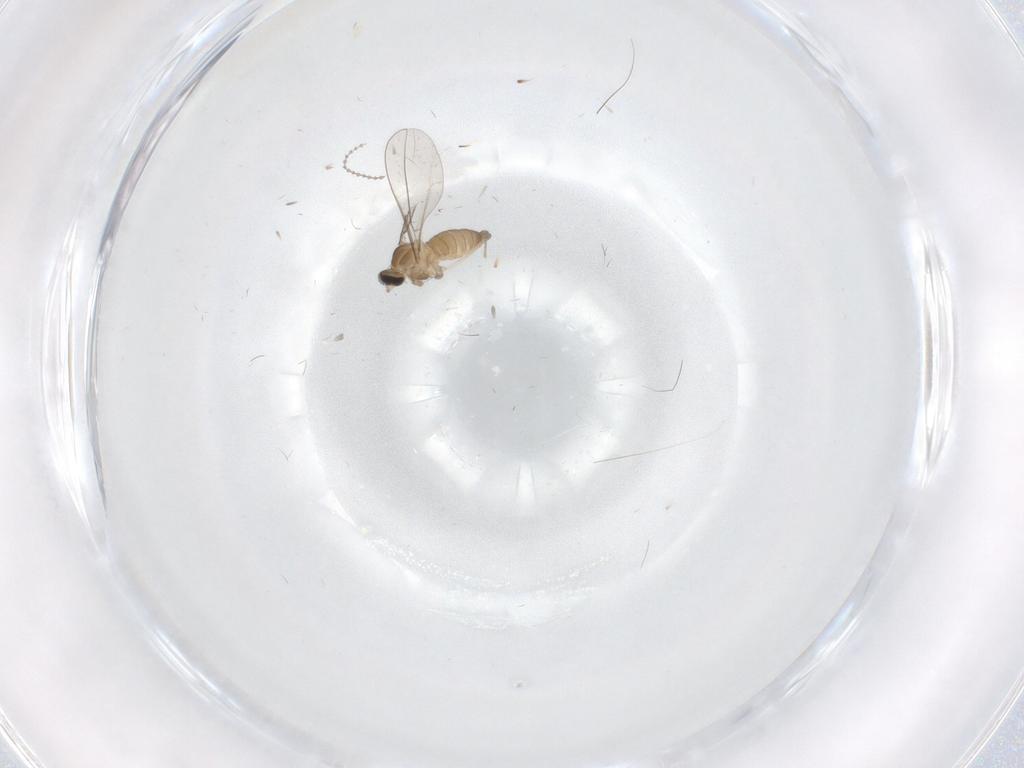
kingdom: Animalia
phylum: Arthropoda
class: Insecta
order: Diptera
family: Cecidomyiidae
